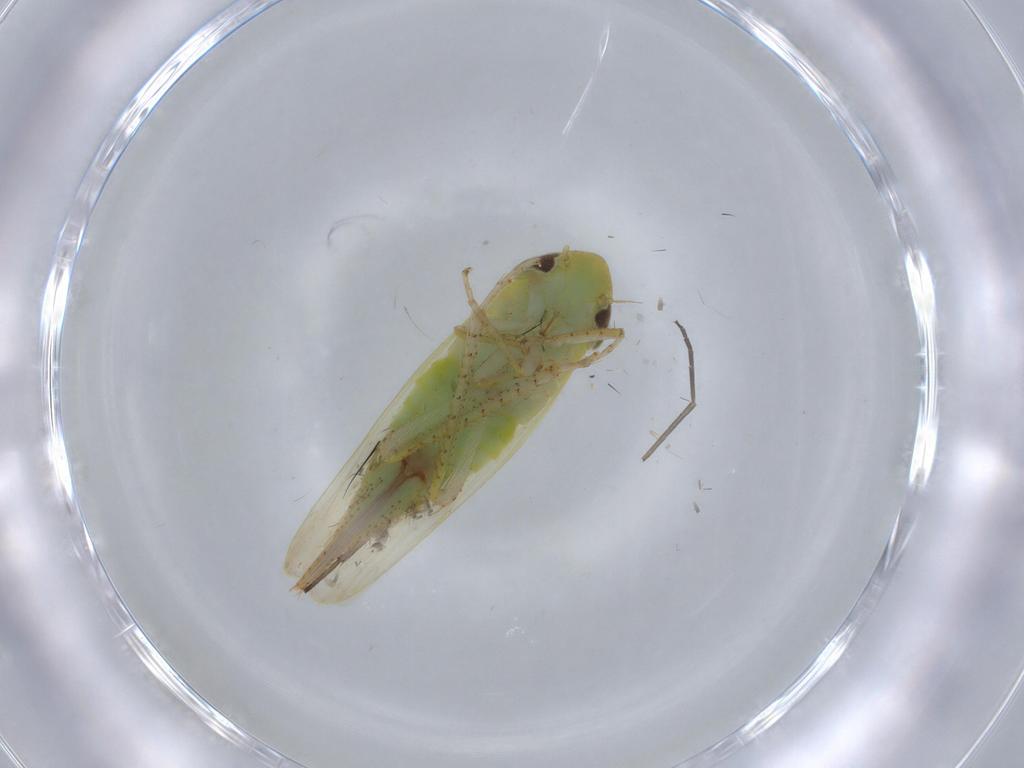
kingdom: Animalia
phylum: Arthropoda
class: Insecta
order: Hemiptera
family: Cicadellidae
